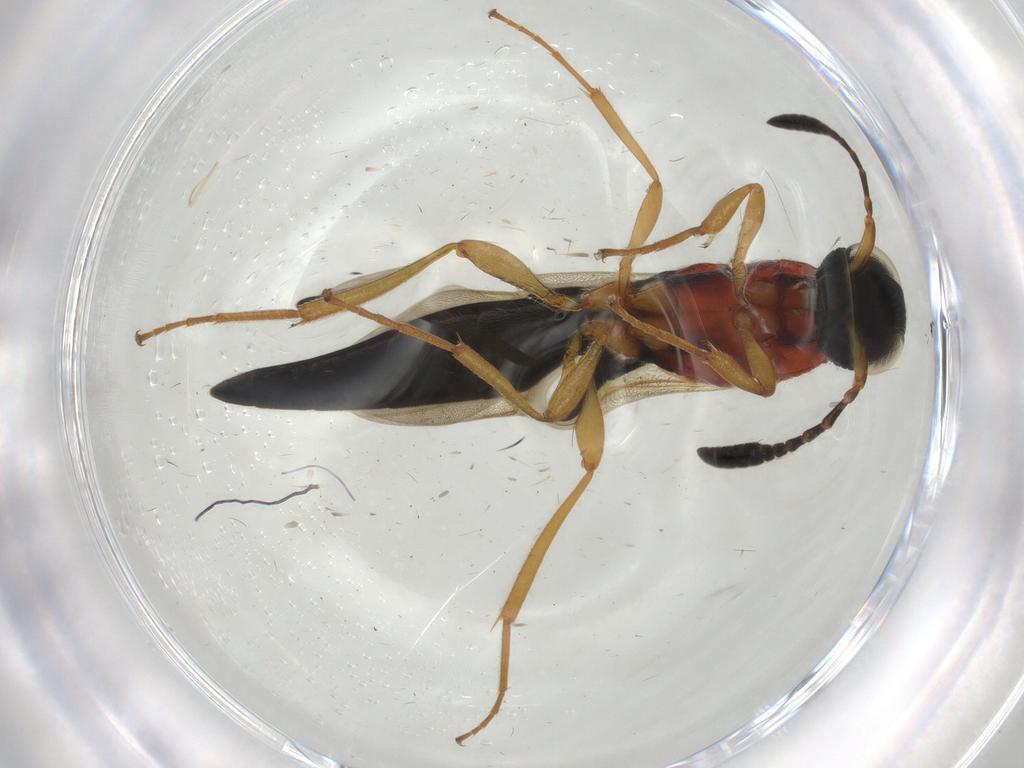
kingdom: Animalia
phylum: Arthropoda
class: Insecta
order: Hymenoptera
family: Scelionidae
